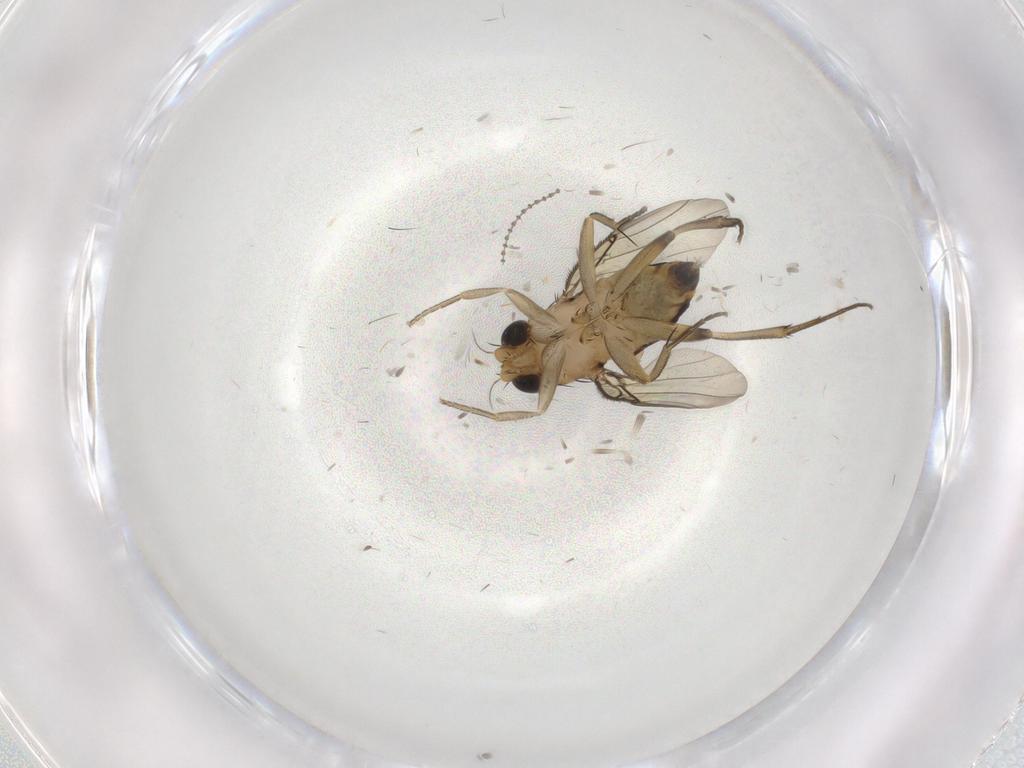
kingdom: Animalia
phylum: Arthropoda
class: Insecta
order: Diptera
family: Phoridae
